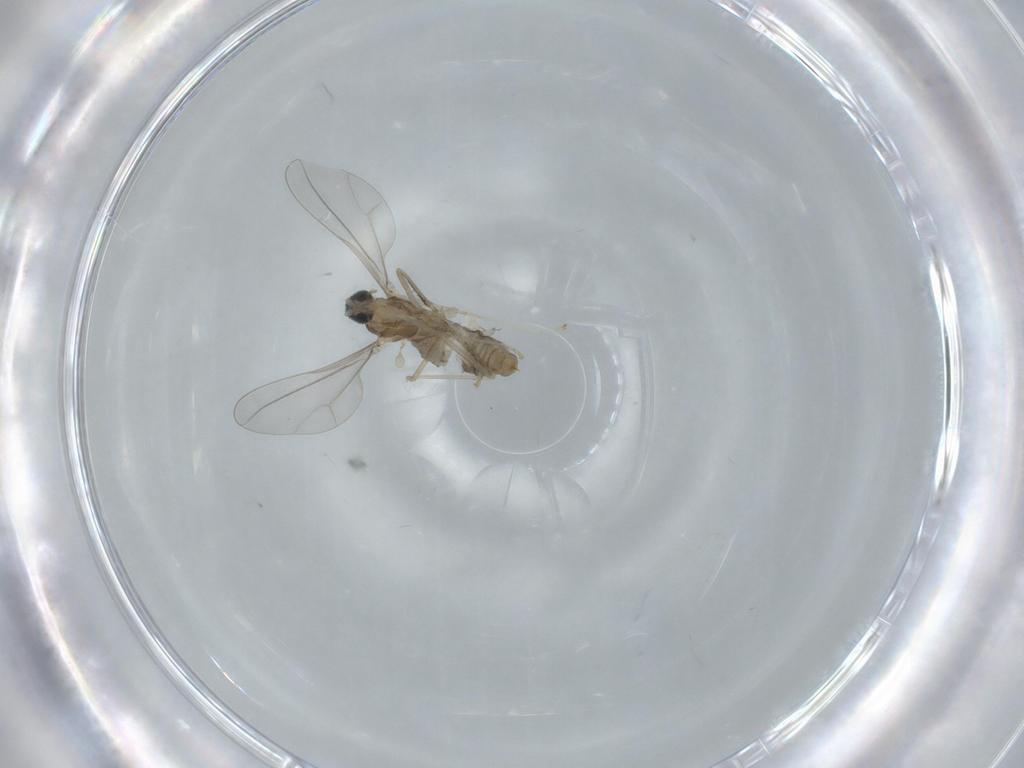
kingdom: Animalia
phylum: Arthropoda
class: Insecta
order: Diptera
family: Cecidomyiidae
